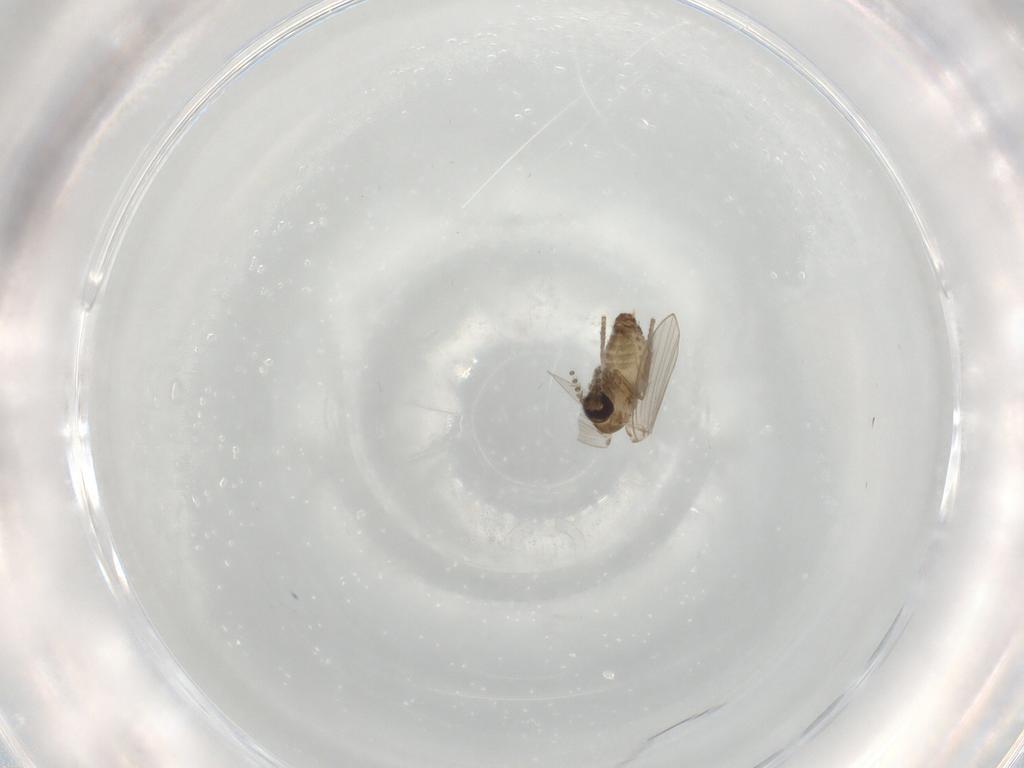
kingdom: Animalia
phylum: Arthropoda
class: Insecta
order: Diptera
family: Psychodidae
